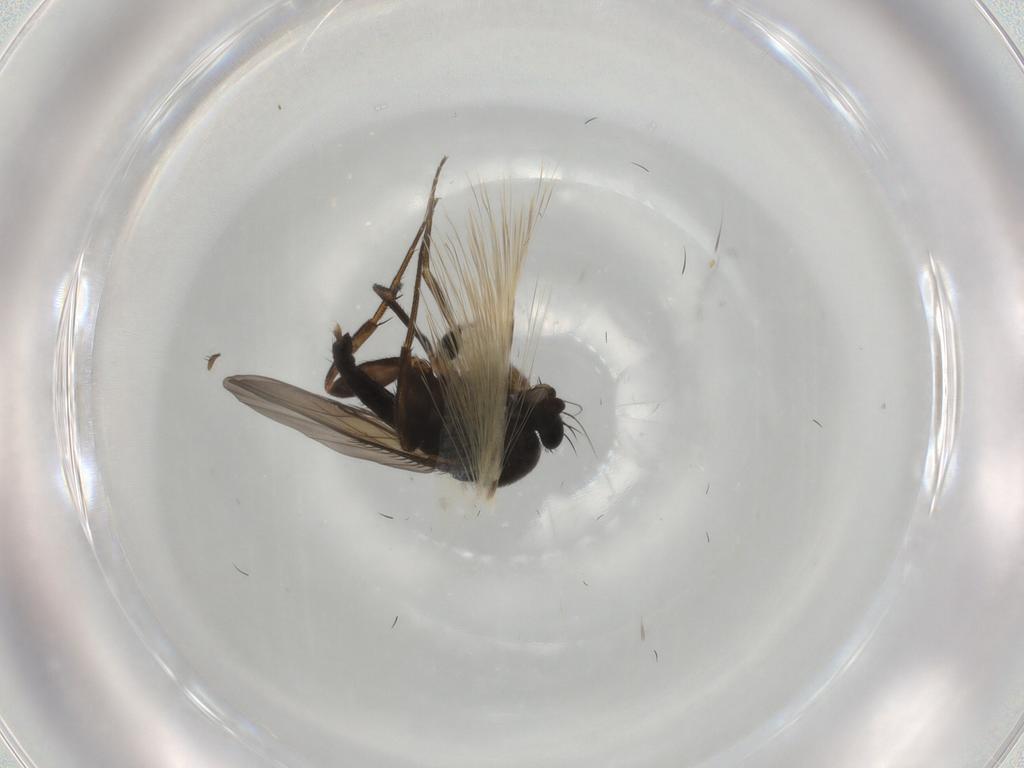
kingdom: Animalia
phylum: Arthropoda
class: Insecta
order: Diptera
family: Phoridae
